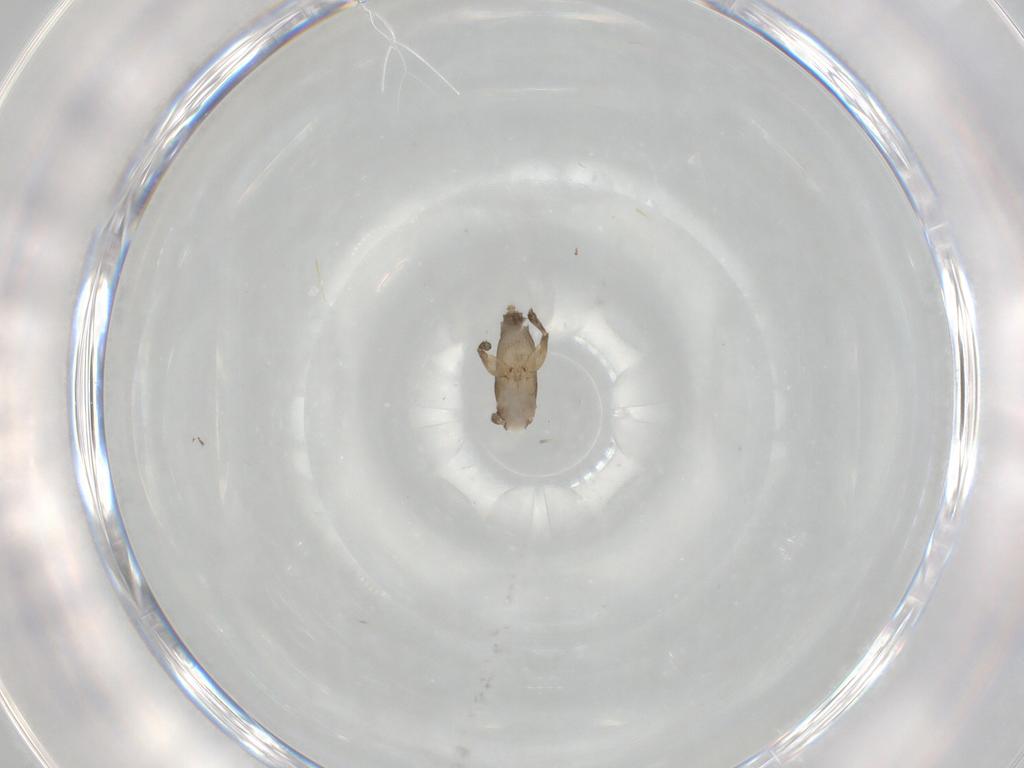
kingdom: Animalia
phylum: Arthropoda
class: Insecta
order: Diptera
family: Phoridae
